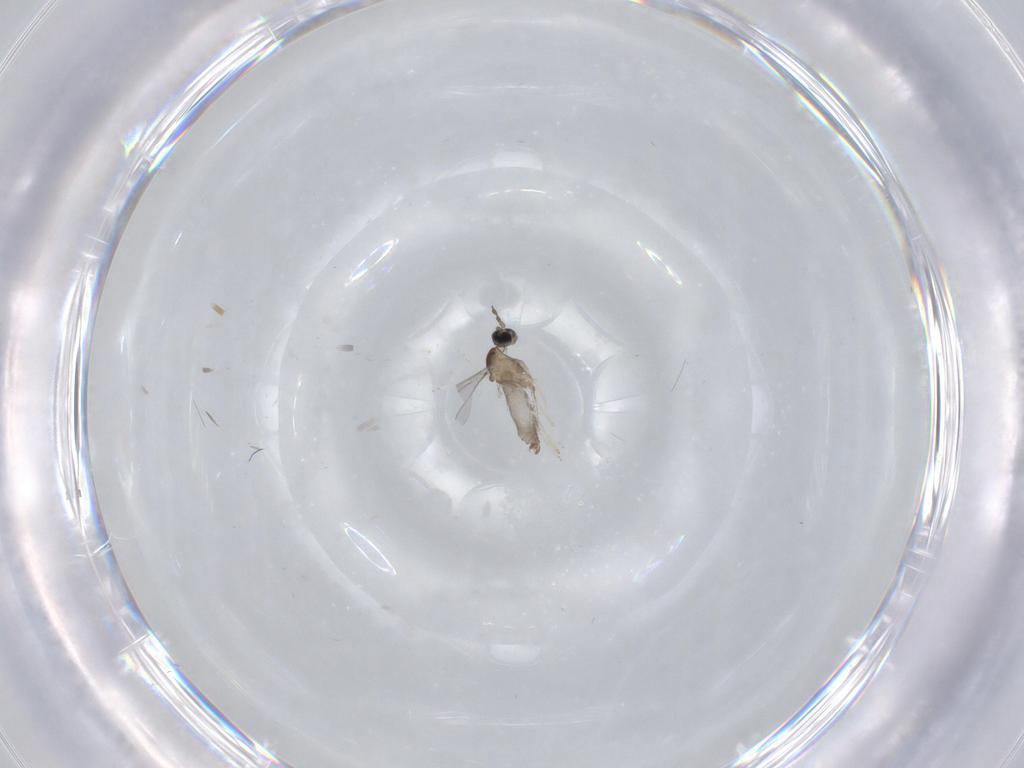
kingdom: Animalia
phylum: Arthropoda
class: Insecta
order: Diptera
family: Cecidomyiidae
